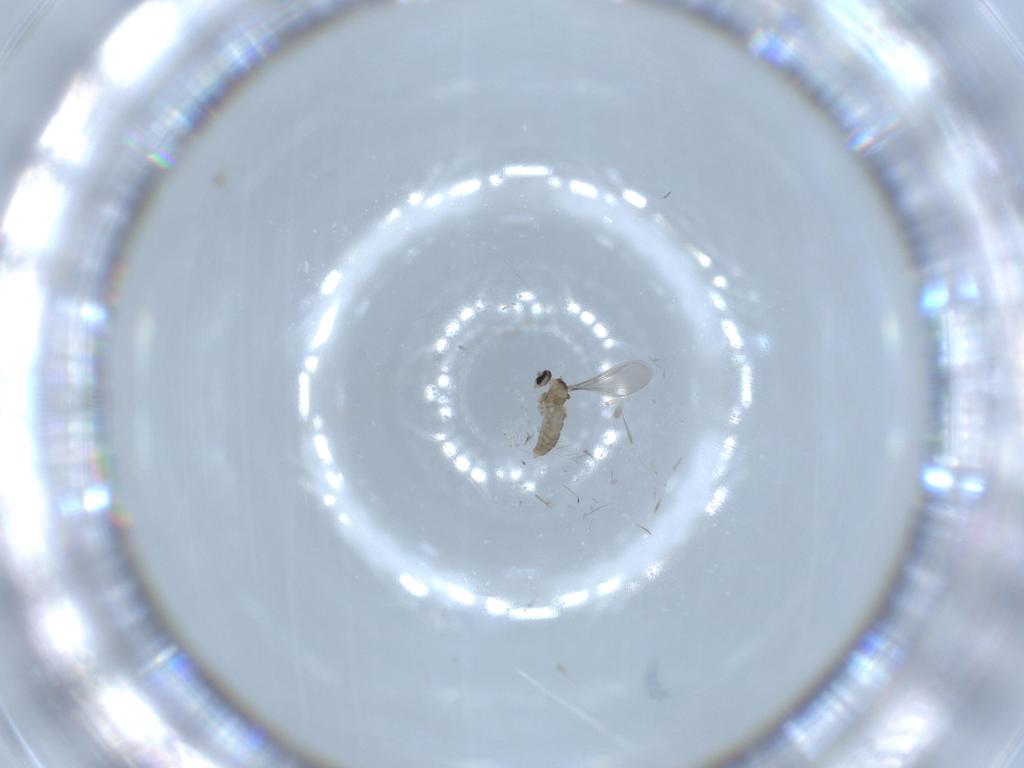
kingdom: Animalia
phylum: Arthropoda
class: Insecta
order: Diptera
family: Cecidomyiidae
